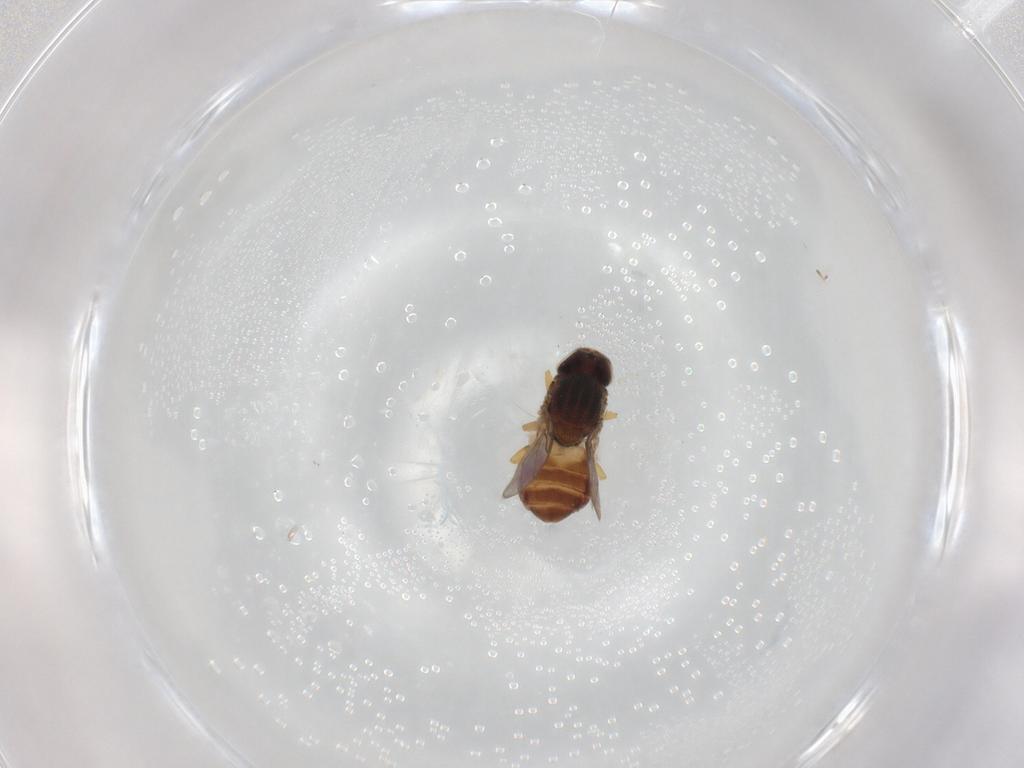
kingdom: Animalia
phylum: Arthropoda
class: Insecta
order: Diptera
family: Chloropidae
